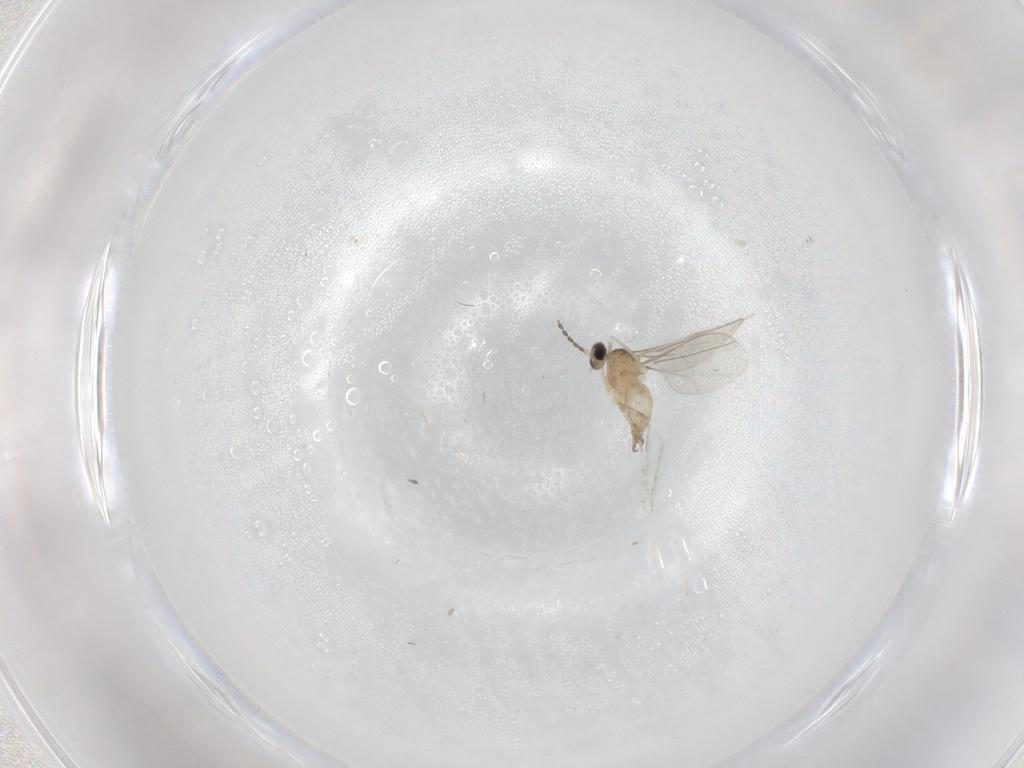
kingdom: Animalia
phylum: Arthropoda
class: Insecta
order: Diptera
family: Cecidomyiidae
